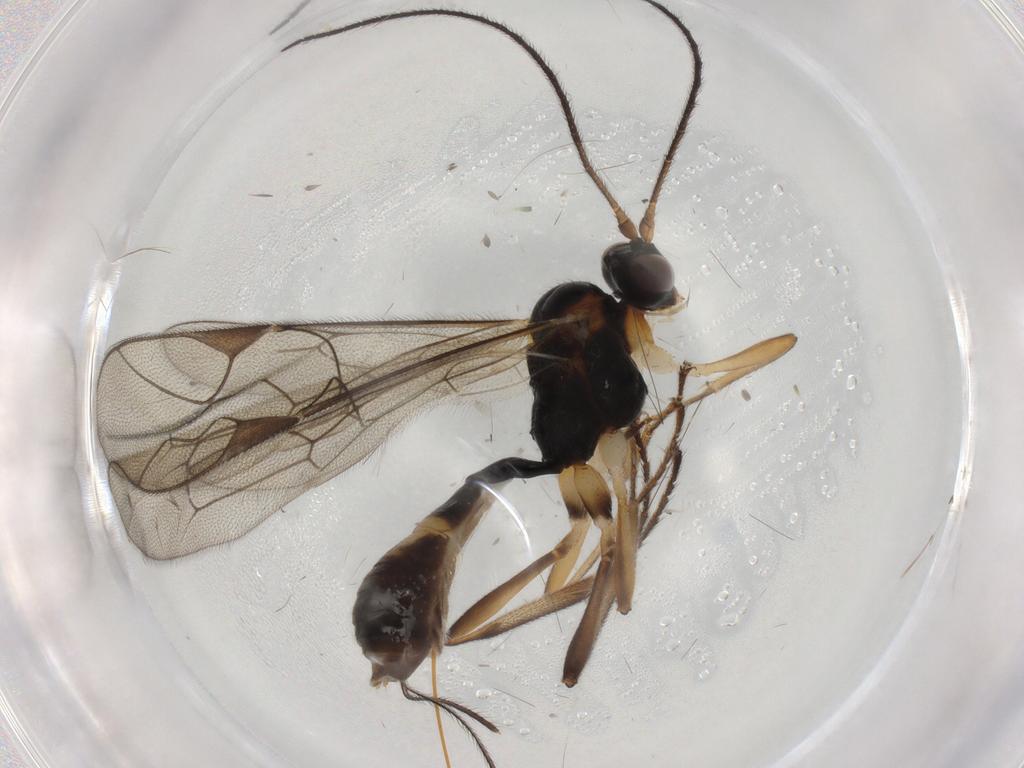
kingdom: Animalia
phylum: Arthropoda
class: Insecta
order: Hymenoptera
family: Ichneumonidae
